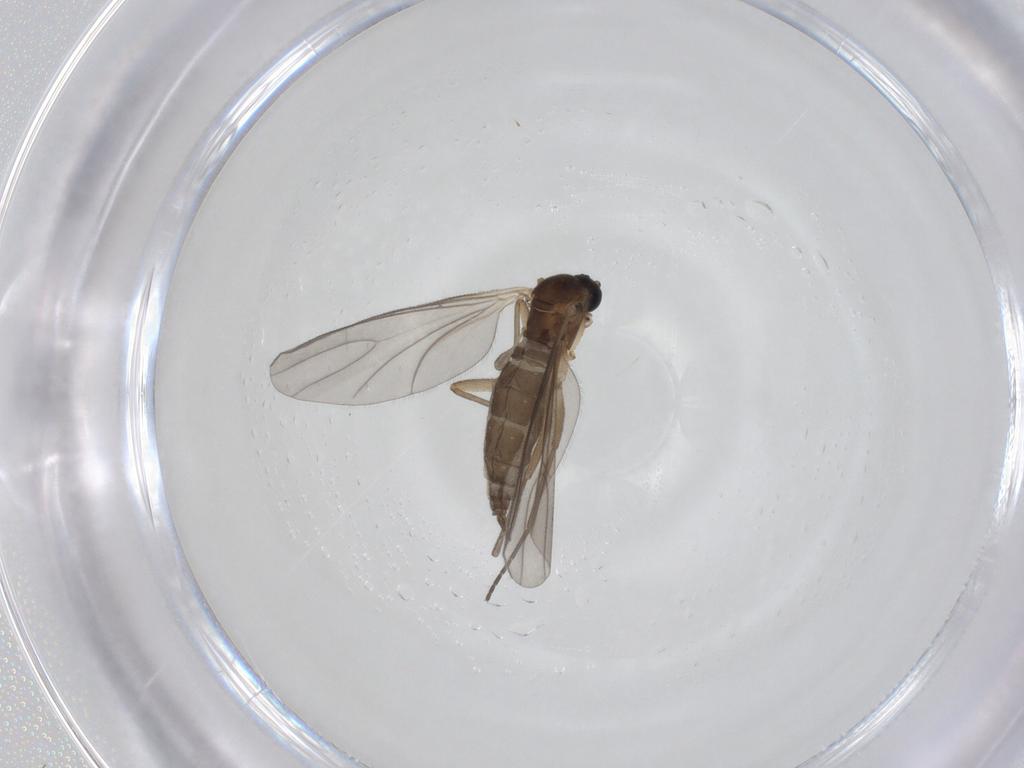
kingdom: Animalia
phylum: Arthropoda
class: Insecta
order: Diptera
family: Sciaridae
